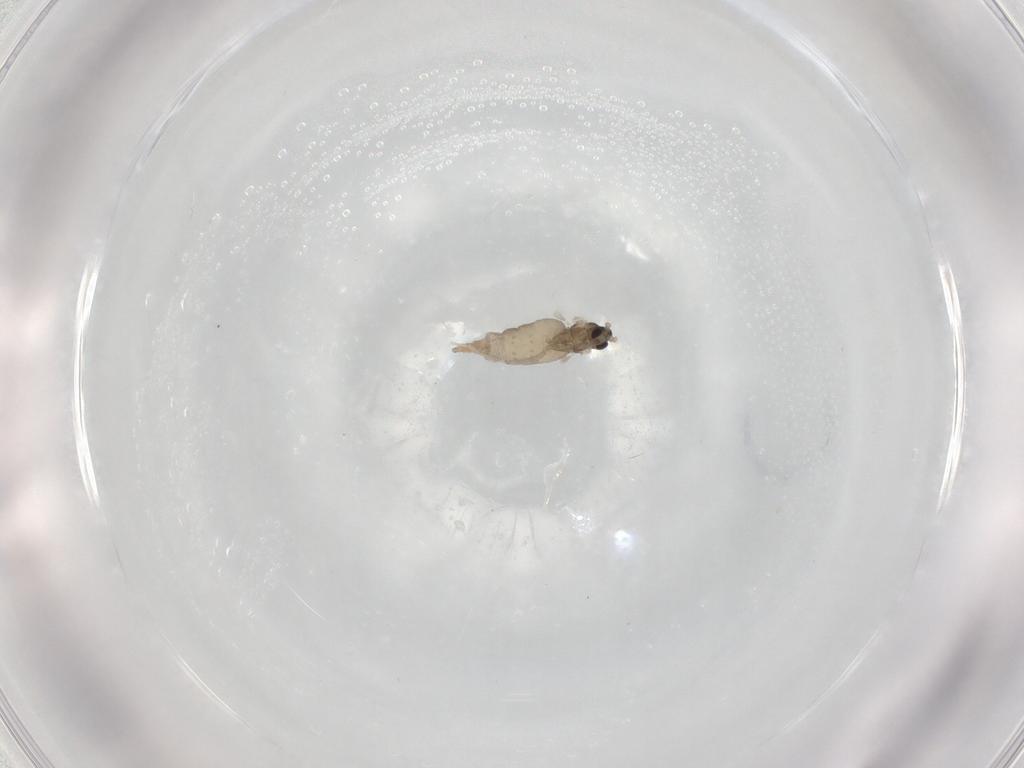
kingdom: Animalia
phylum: Arthropoda
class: Insecta
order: Diptera
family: Cecidomyiidae
